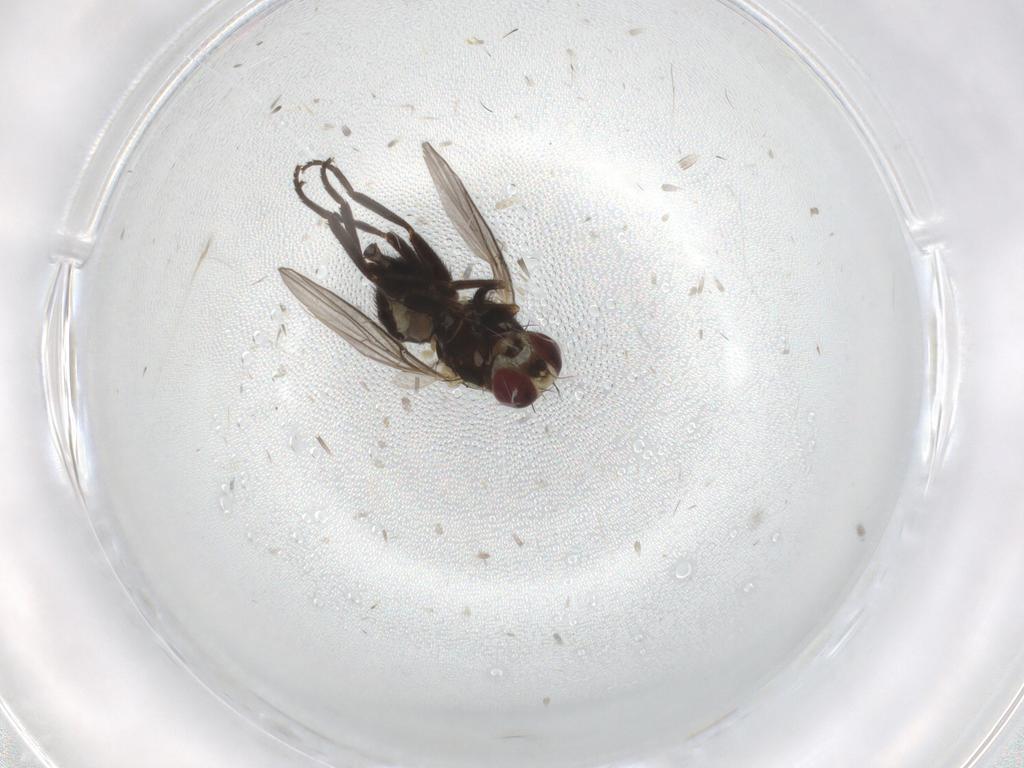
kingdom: Animalia
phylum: Arthropoda
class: Insecta
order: Diptera
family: Agromyzidae
